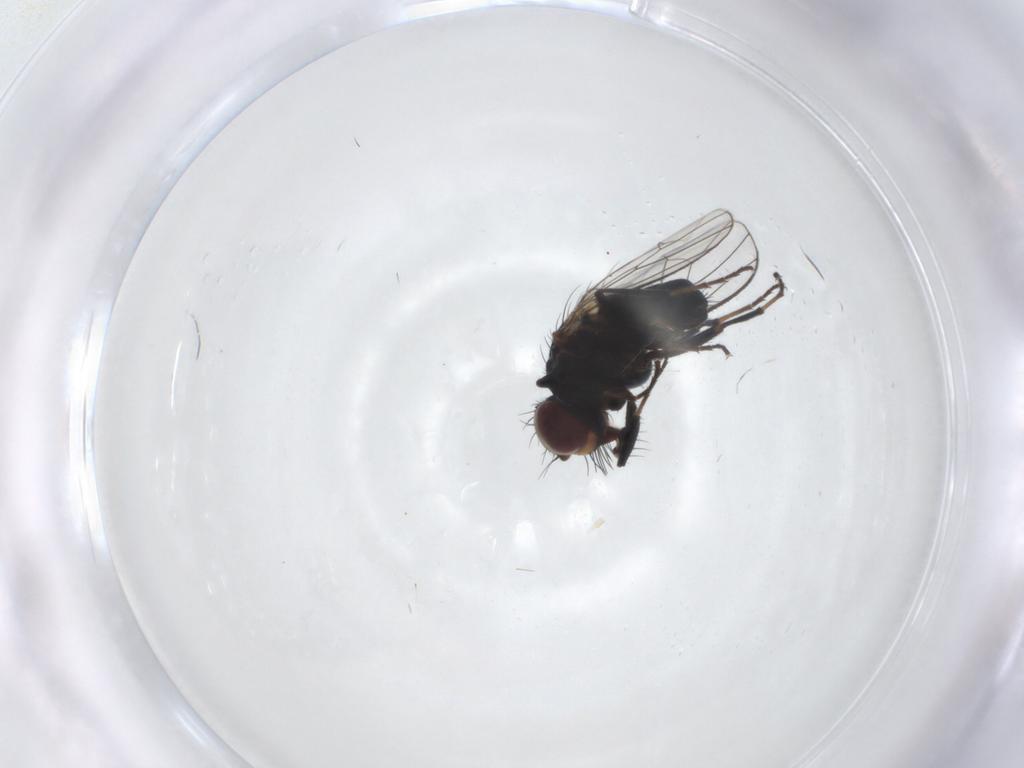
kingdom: Animalia
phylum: Arthropoda
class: Insecta
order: Diptera
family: Carnidae
